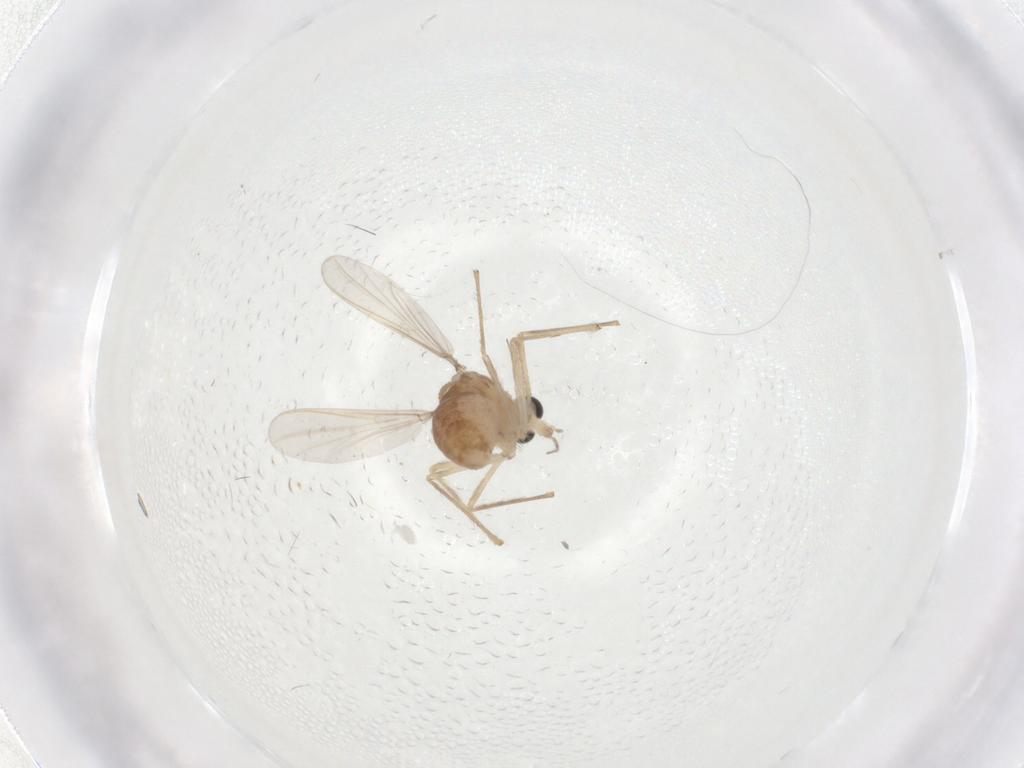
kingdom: Animalia
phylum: Arthropoda
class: Insecta
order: Diptera
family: Chironomidae
